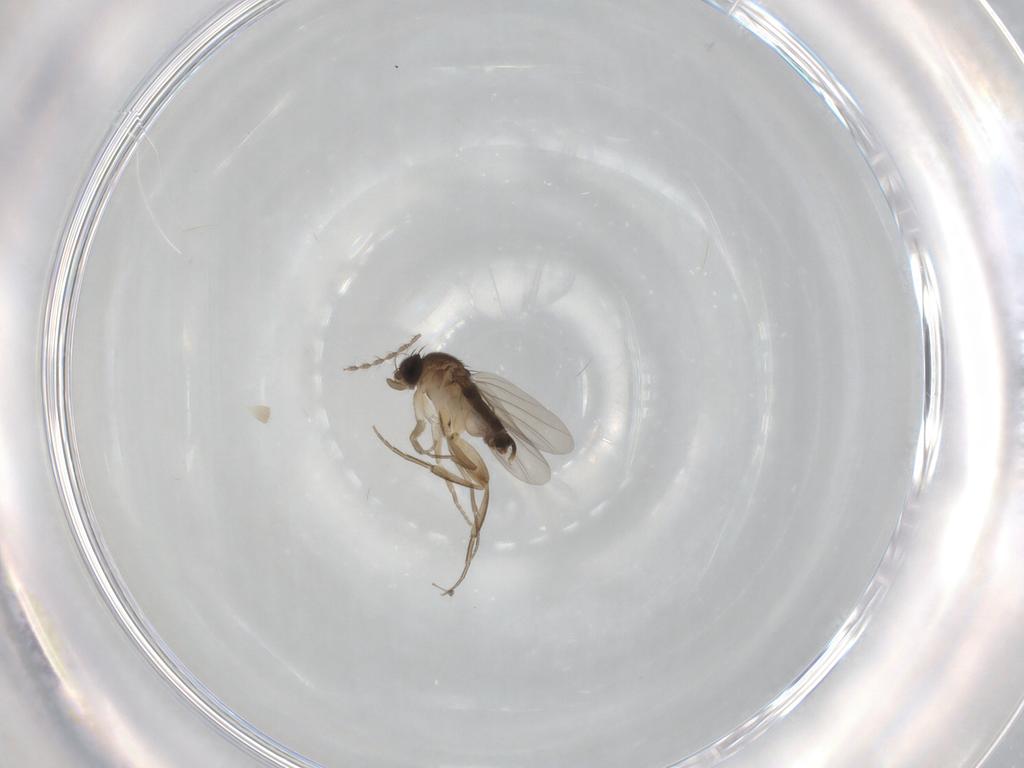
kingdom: Animalia
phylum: Arthropoda
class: Insecta
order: Diptera
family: Phoridae
